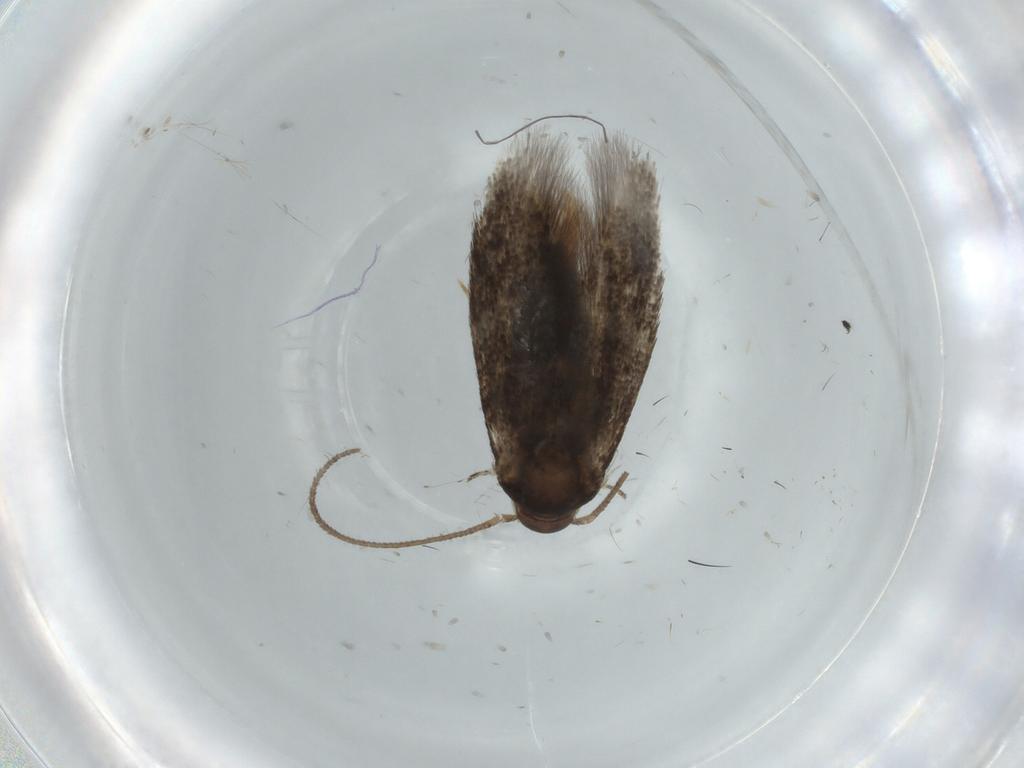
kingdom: Animalia
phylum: Arthropoda
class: Insecta
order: Lepidoptera
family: Elachistidae
